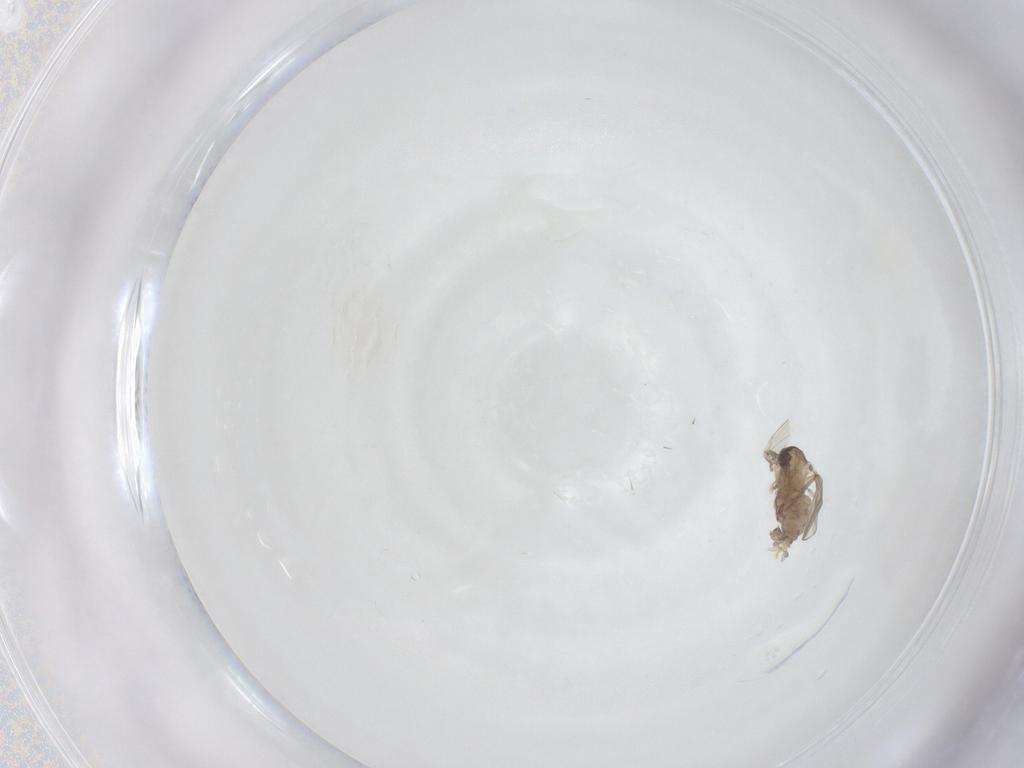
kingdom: Animalia
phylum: Arthropoda
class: Insecta
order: Diptera
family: Psychodidae
